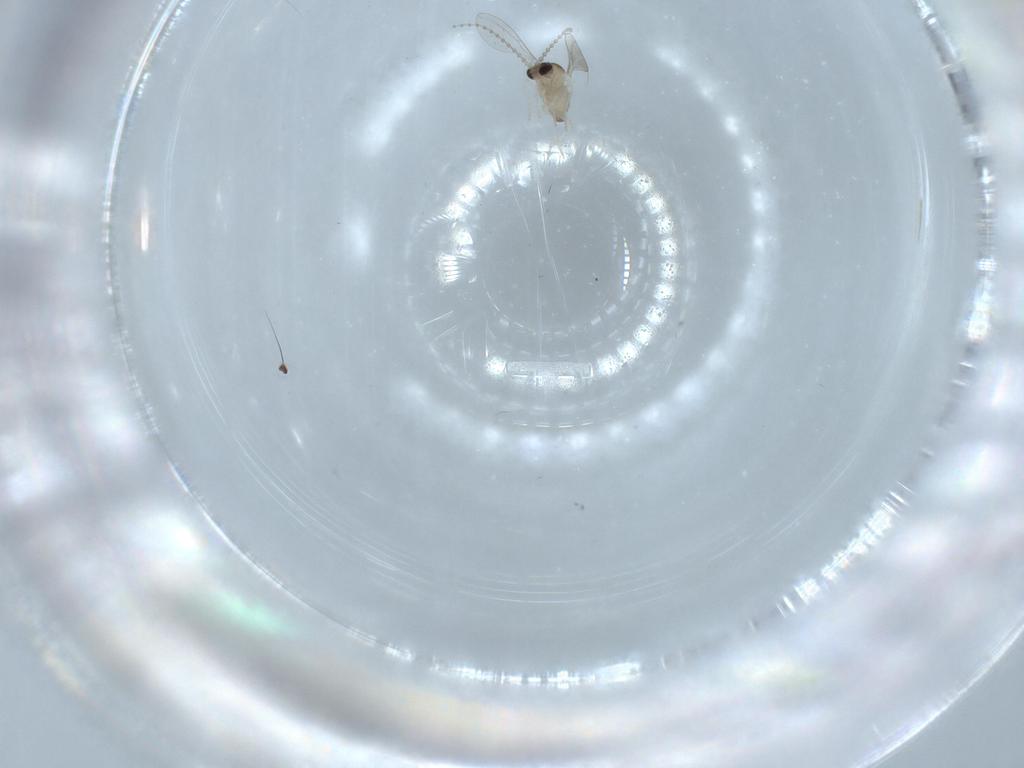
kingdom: Animalia
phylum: Arthropoda
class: Insecta
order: Diptera
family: Cecidomyiidae
